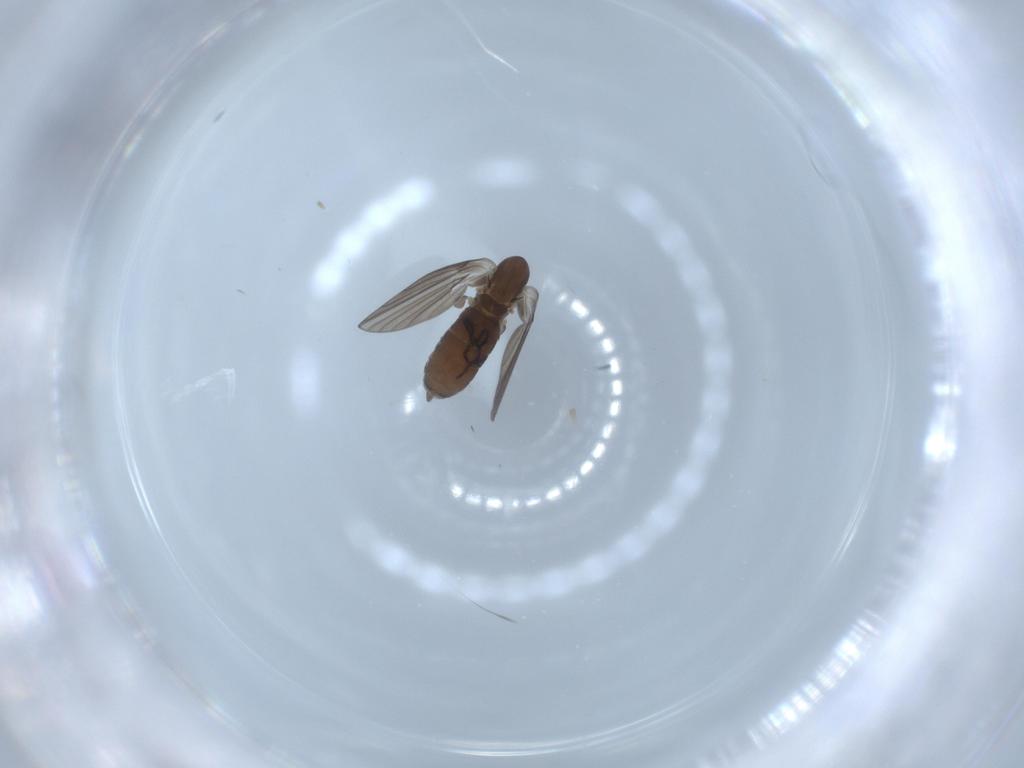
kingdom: Animalia
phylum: Arthropoda
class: Insecta
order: Diptera
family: Psychodidae
